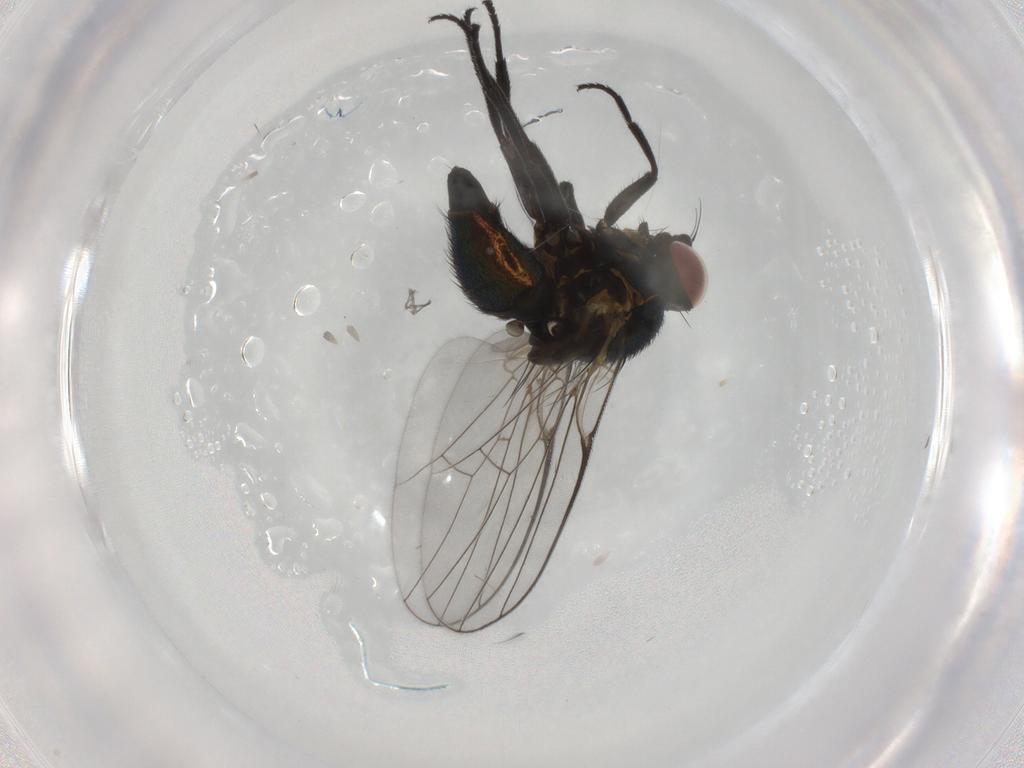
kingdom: Animalia
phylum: Arthropoda
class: Insecta
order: Diptera
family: Agromyzidae
